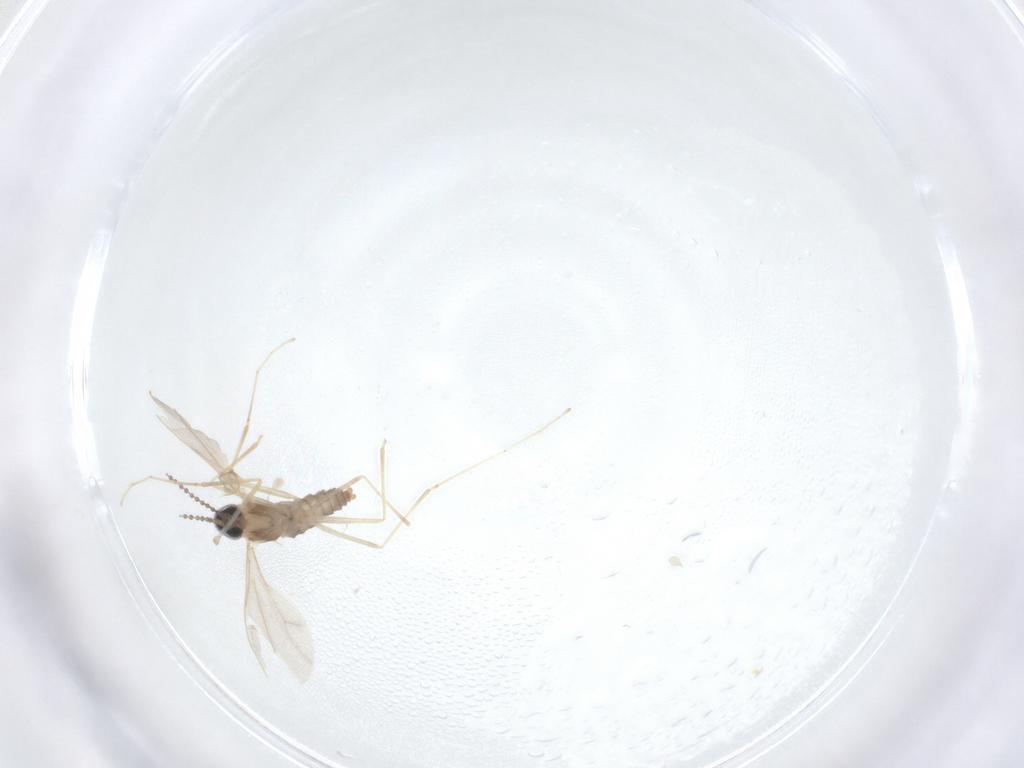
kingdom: Animalia
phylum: Arthropoda
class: Insecta
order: Diptera
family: Cecidomyiidae
